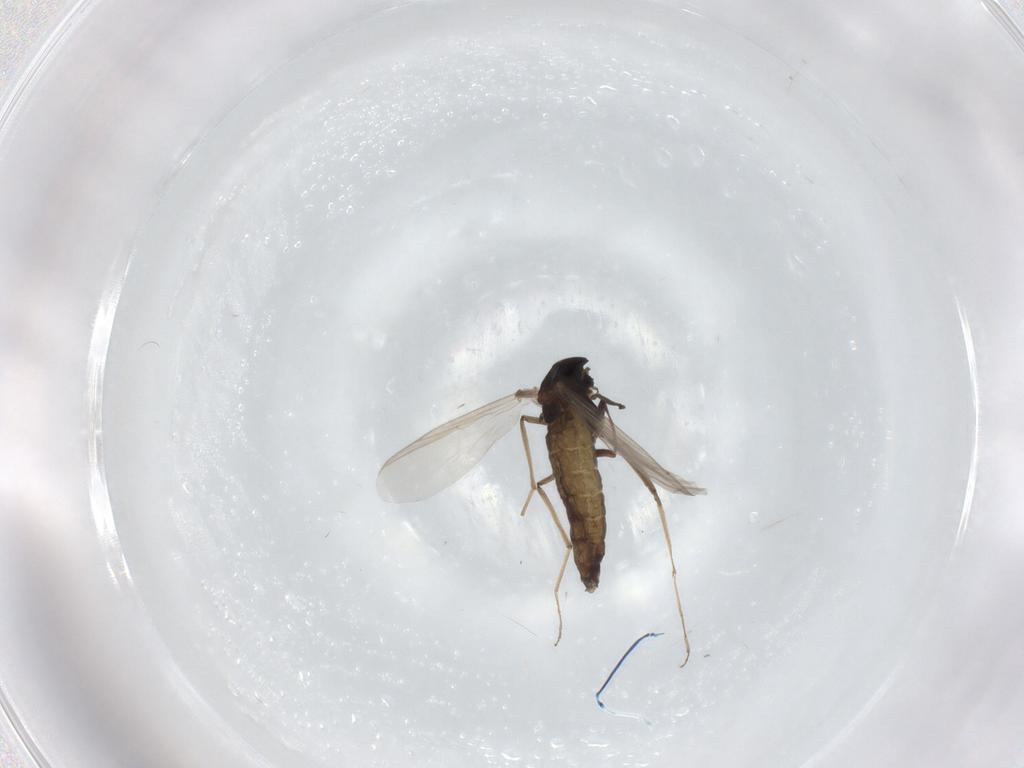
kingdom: Animalia
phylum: Arthropoda
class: Insecta
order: Diptera
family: Chironomidae
